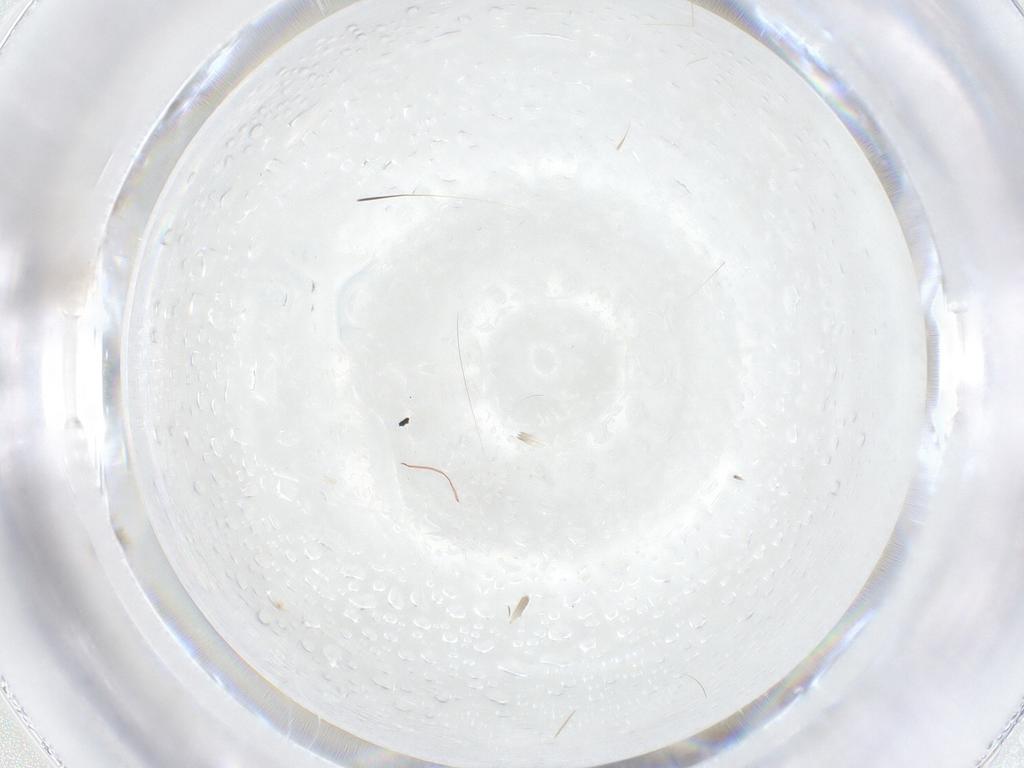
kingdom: Animalia
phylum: Arthropoda
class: Insecta
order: Diptera
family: Cecidomyiidae
